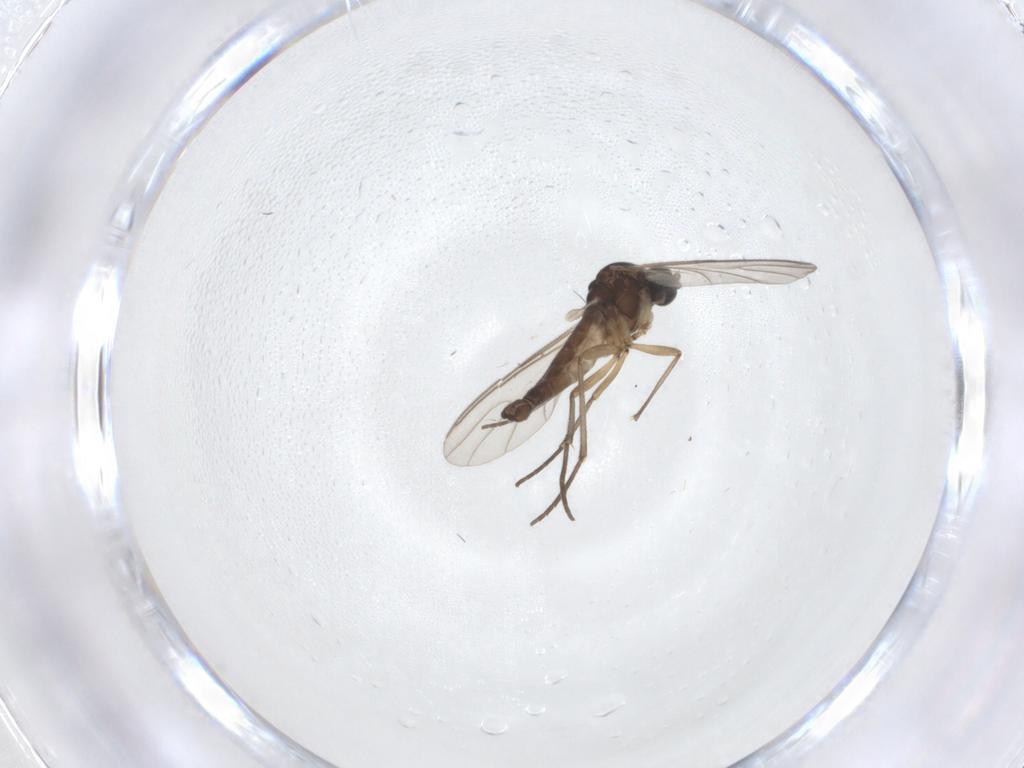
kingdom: Animalia
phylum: Arthropoda
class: Insecta
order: Diptera
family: Sciaridae
